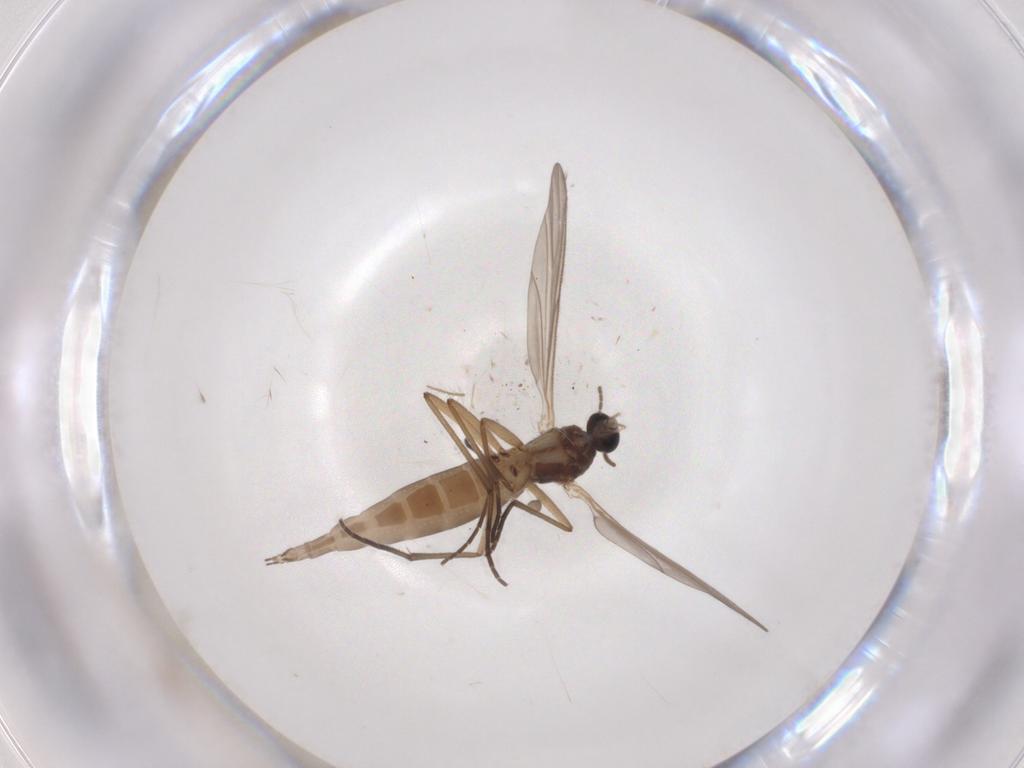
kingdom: Animalia
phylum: Arthropoda
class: Insecta
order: Diptera
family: Sciaridae
